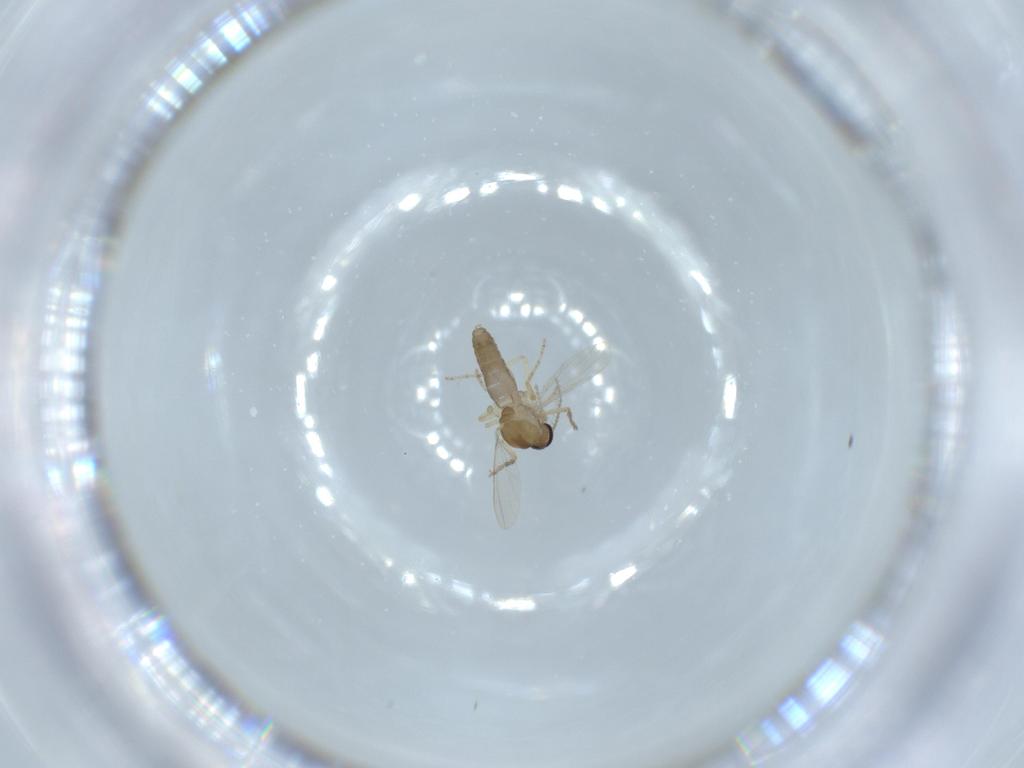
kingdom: Animalia
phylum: Arthropoda
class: Insecta
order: Diptera
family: Ceratopogonidae
